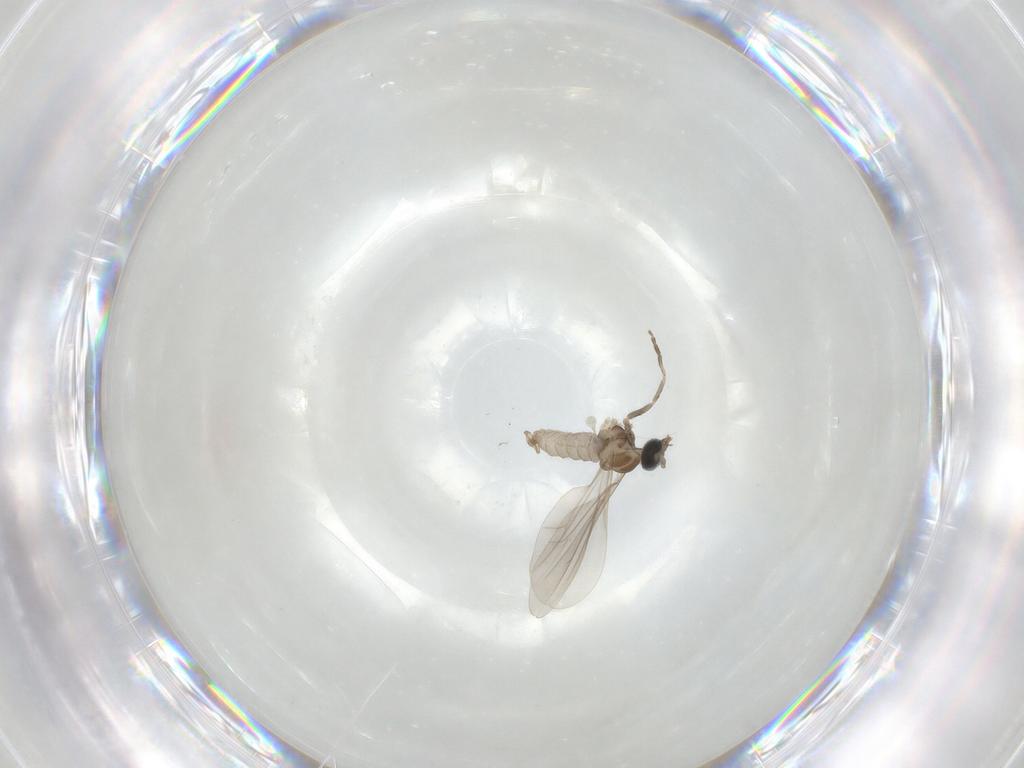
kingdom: Animalia
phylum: Arthropoda
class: Insecta
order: Diptera
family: Cecidomyiidae
